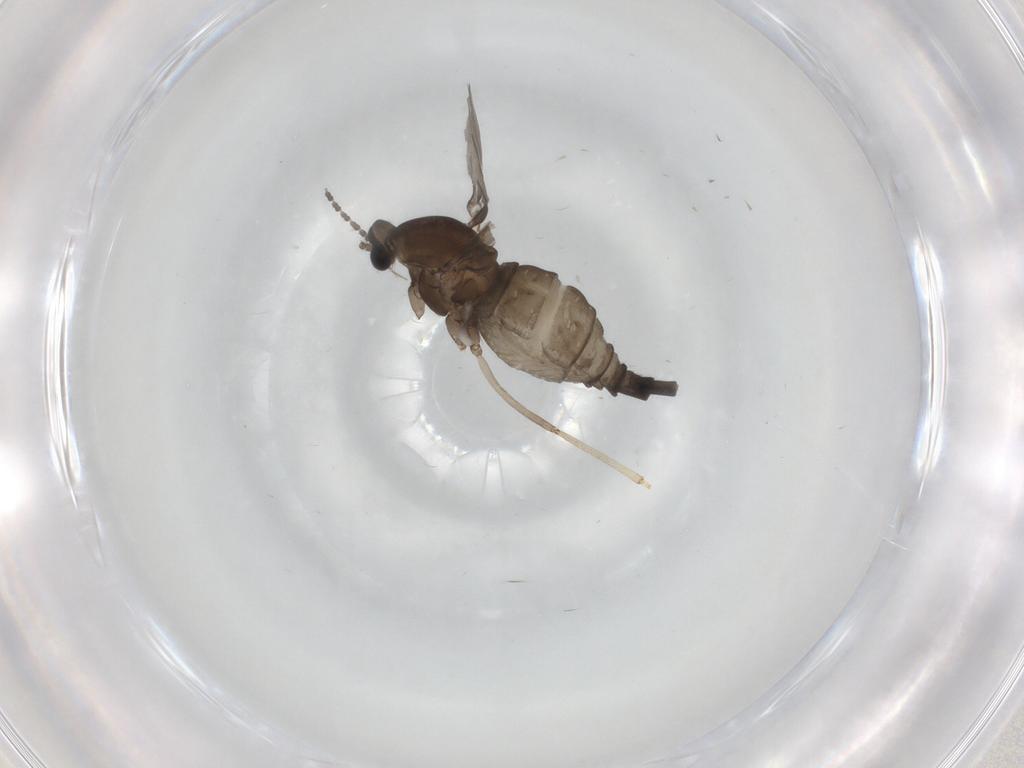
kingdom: Animalia
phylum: Arthropoda
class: Insecta
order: Diptera
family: Cecidomyiidae
